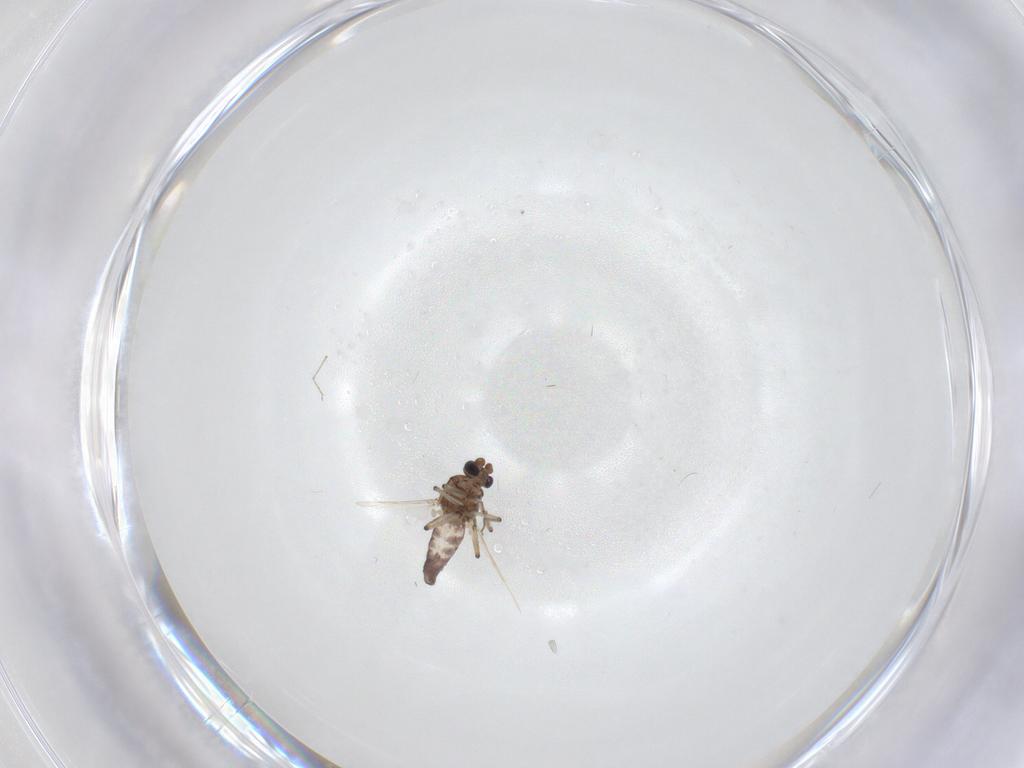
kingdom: Animalia
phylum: Arthropoda
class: Insecta
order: Diptera
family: Ceratopogonidae
